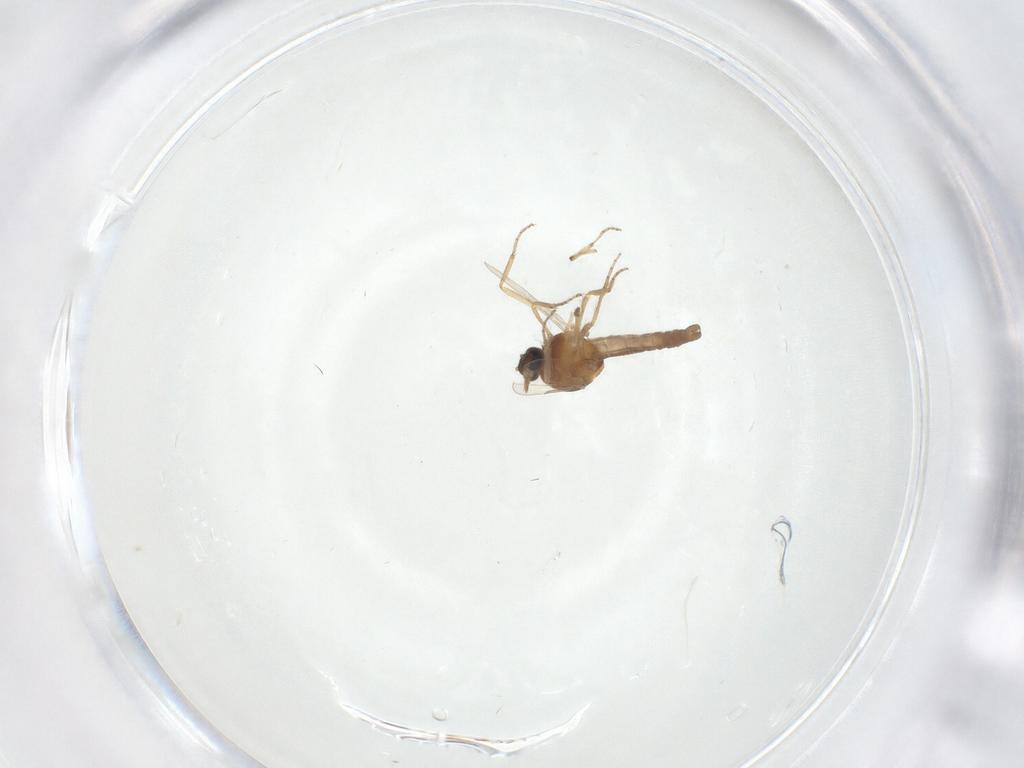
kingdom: Animalia
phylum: Arthropoda
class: Insecta
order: Diptera
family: Ceratopogonidae
